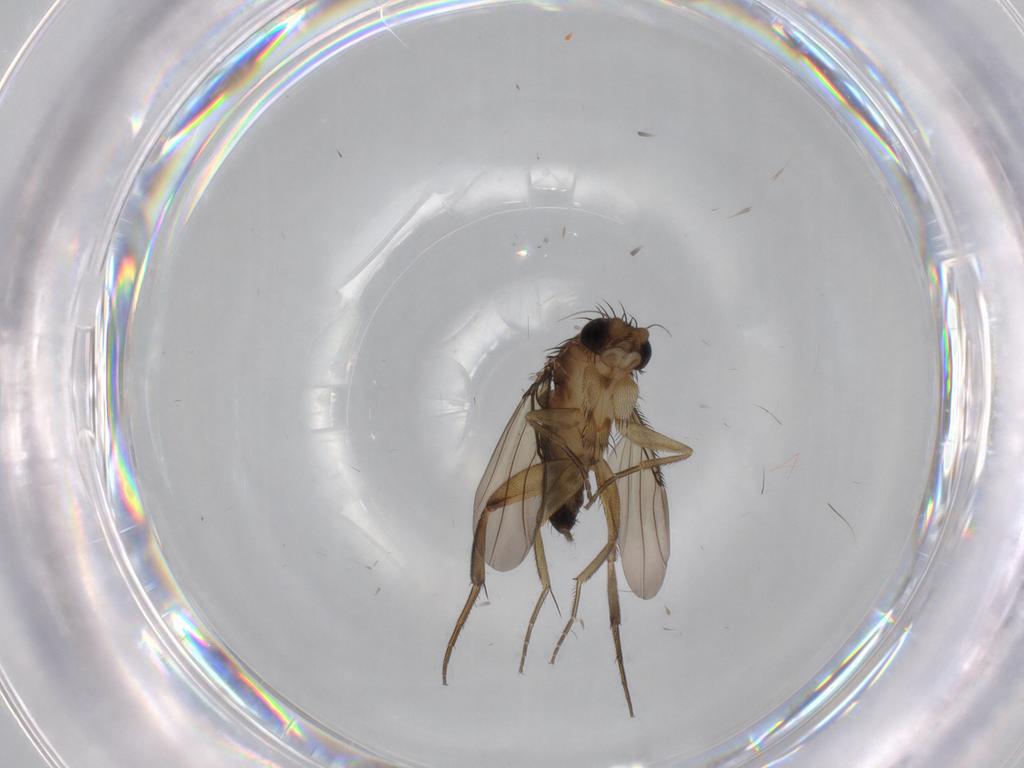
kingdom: Animalia
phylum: Arthropoda
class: Insecta
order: Diptera
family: Phoridae
